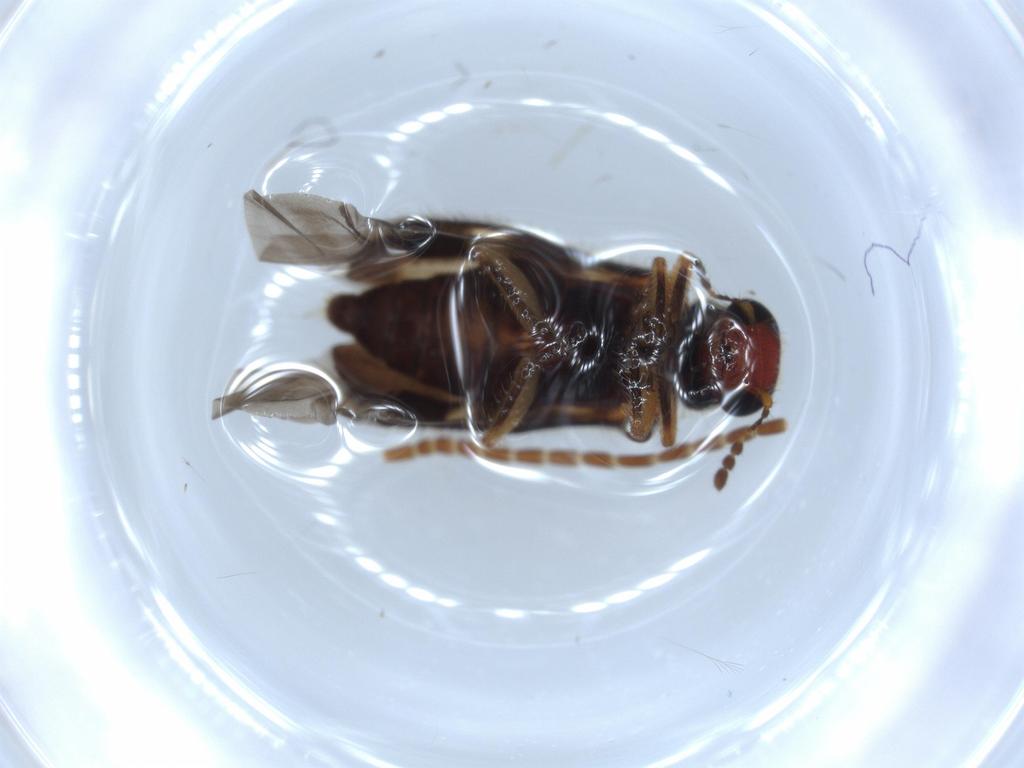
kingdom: Animalia
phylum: Arthropoda
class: Insecta
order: Coleoptera
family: Cleridae
